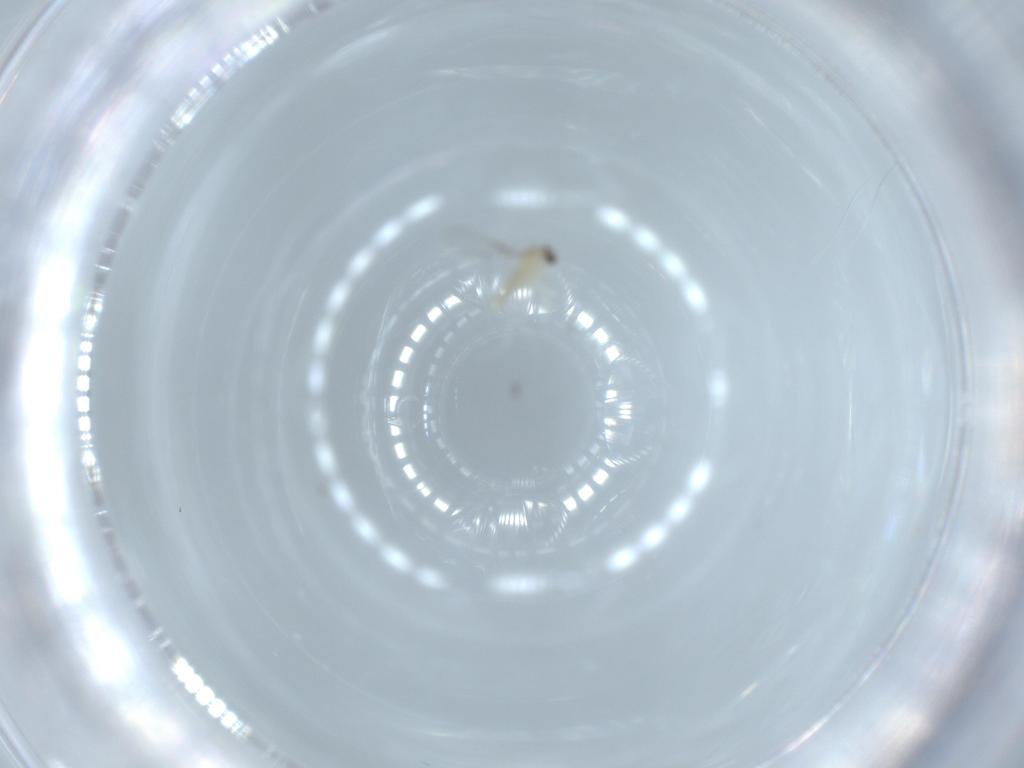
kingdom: Animalia
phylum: Arthropoda
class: Insecta
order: Diptera
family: Cecidomyiidae
